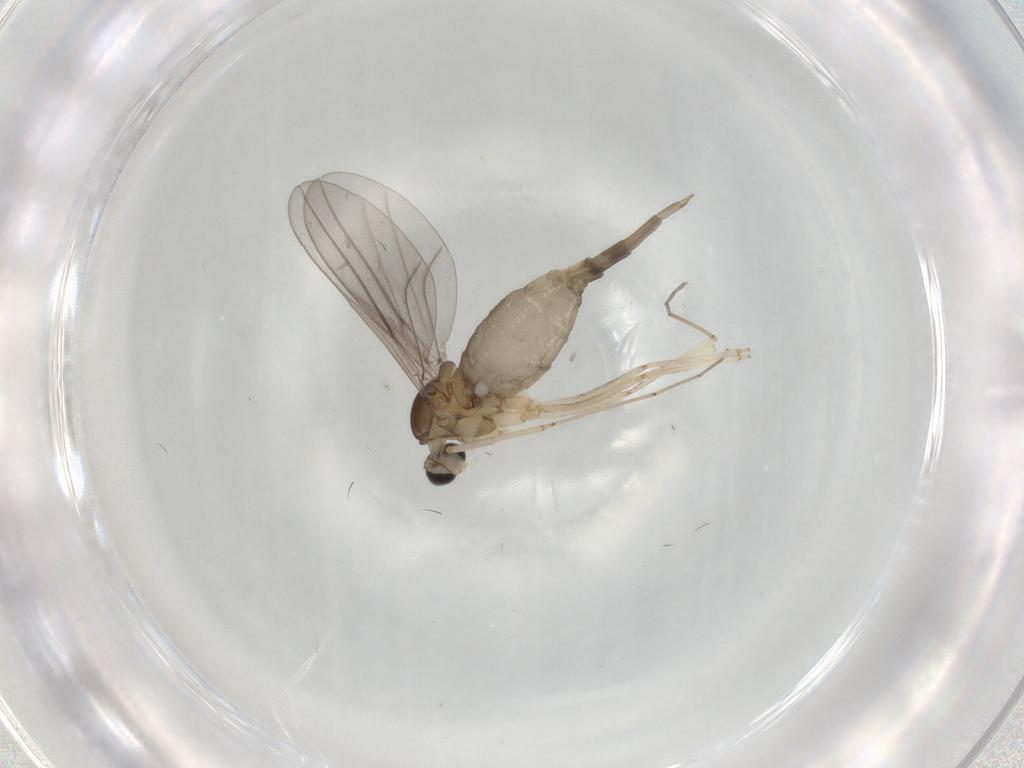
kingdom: Animalia
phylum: Arthropoda
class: Insecta
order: Diptera
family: Cecidomyiidae
